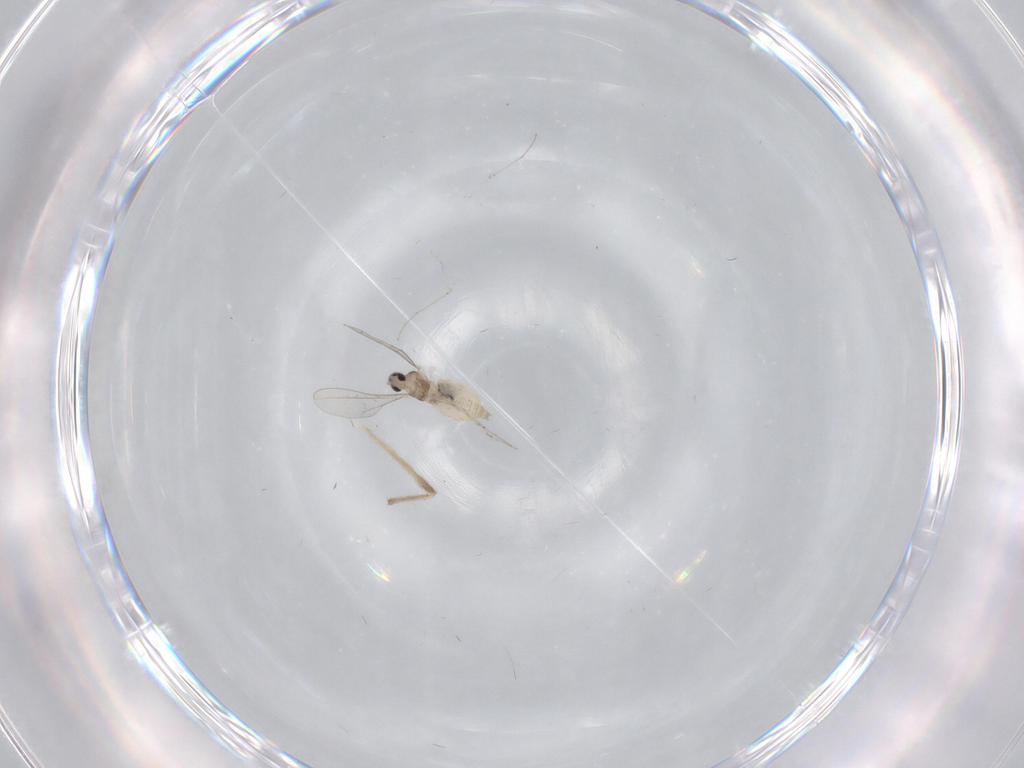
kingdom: Animalia
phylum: Arthropoda
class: Insecta
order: Diptera
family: Cecidomyiidae
